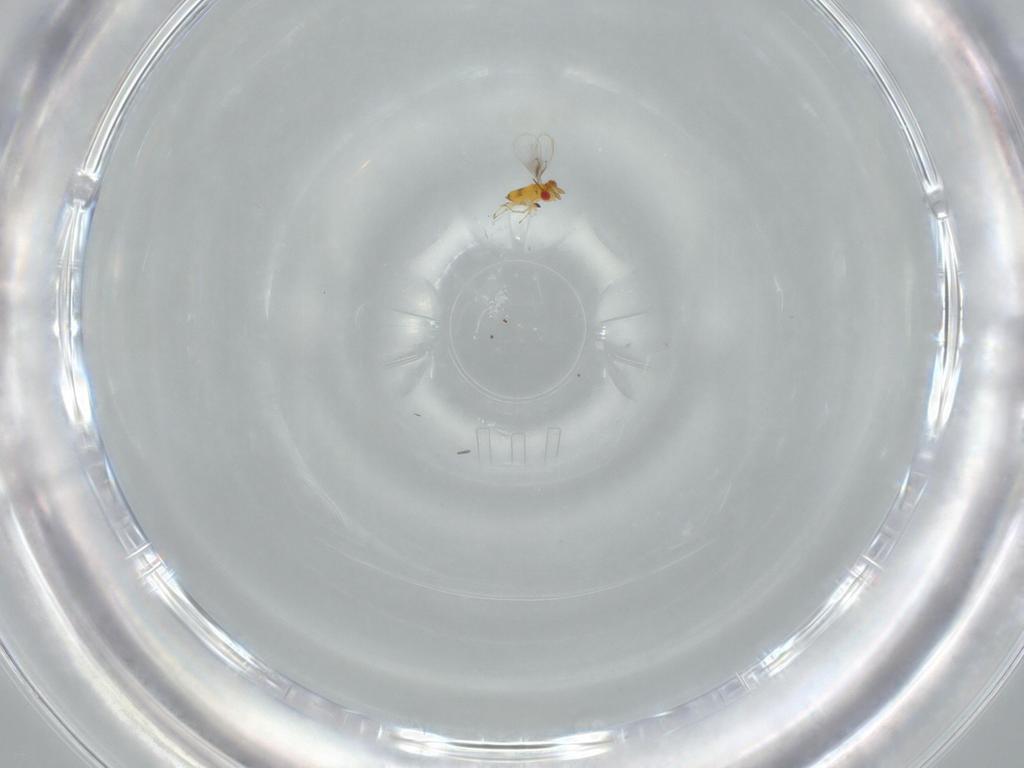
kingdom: Animalia
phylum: Arthropoda
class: Insecta
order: Hymenoptera
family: Trichogrammatidae
